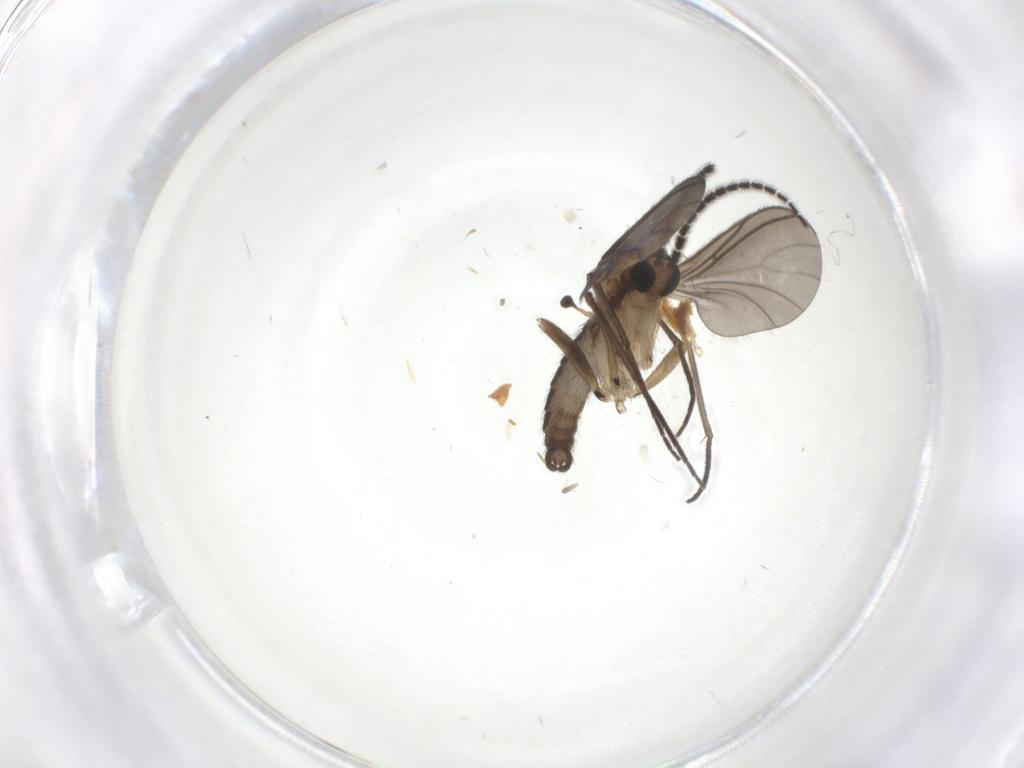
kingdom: Animalia
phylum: Arthropoda
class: Insecta
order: Diptera
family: Sciaridae
